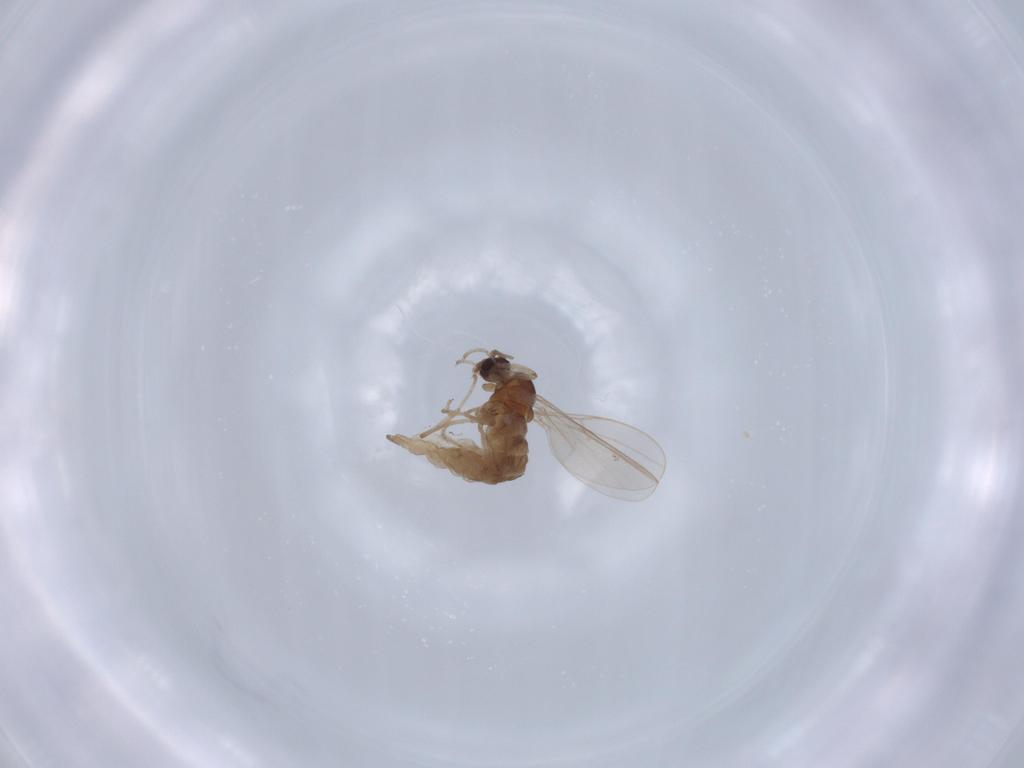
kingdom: Animalia
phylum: Arthropoda
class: Insecta
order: Diptera
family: Cecidomyiidae
